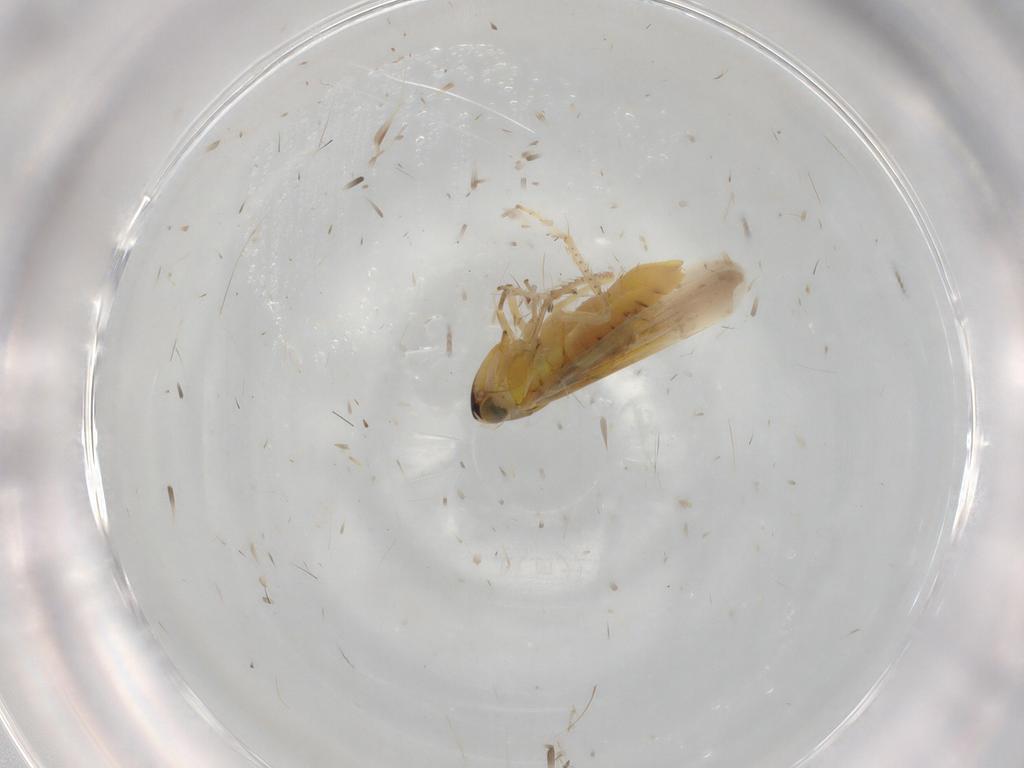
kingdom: Animalia
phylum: Arthropoda
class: Insecta
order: Hemiptera
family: Cicadellidae
